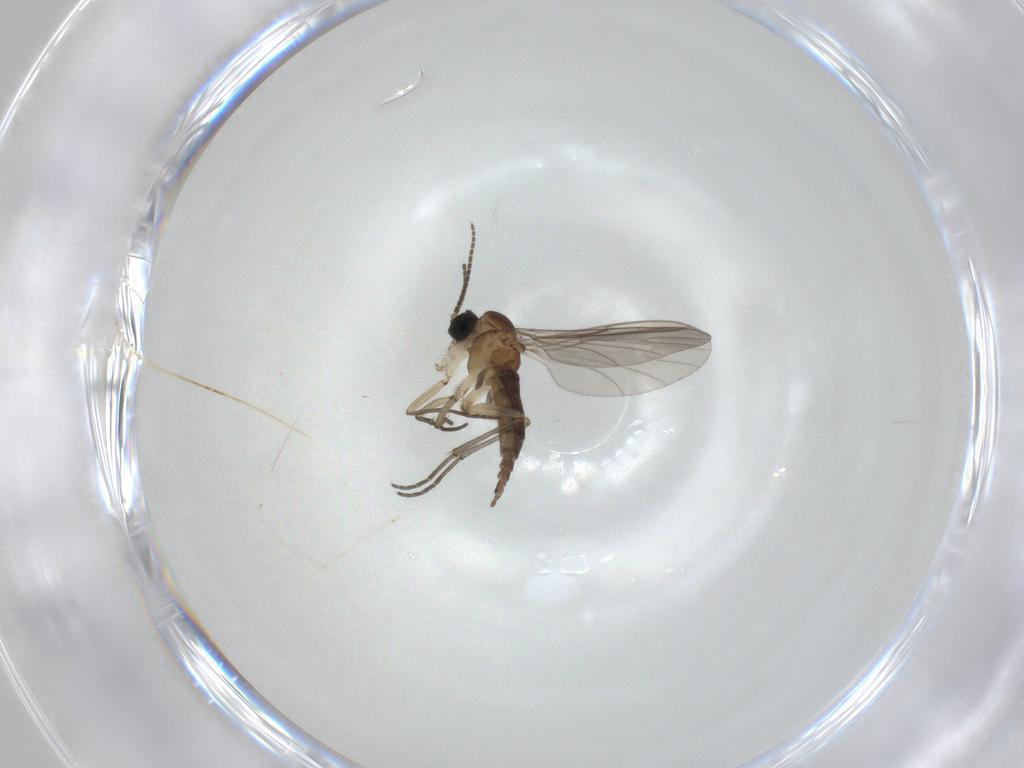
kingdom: Animalia
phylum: Arthropoda
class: Insecta
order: Diptera
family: Sciaridae
